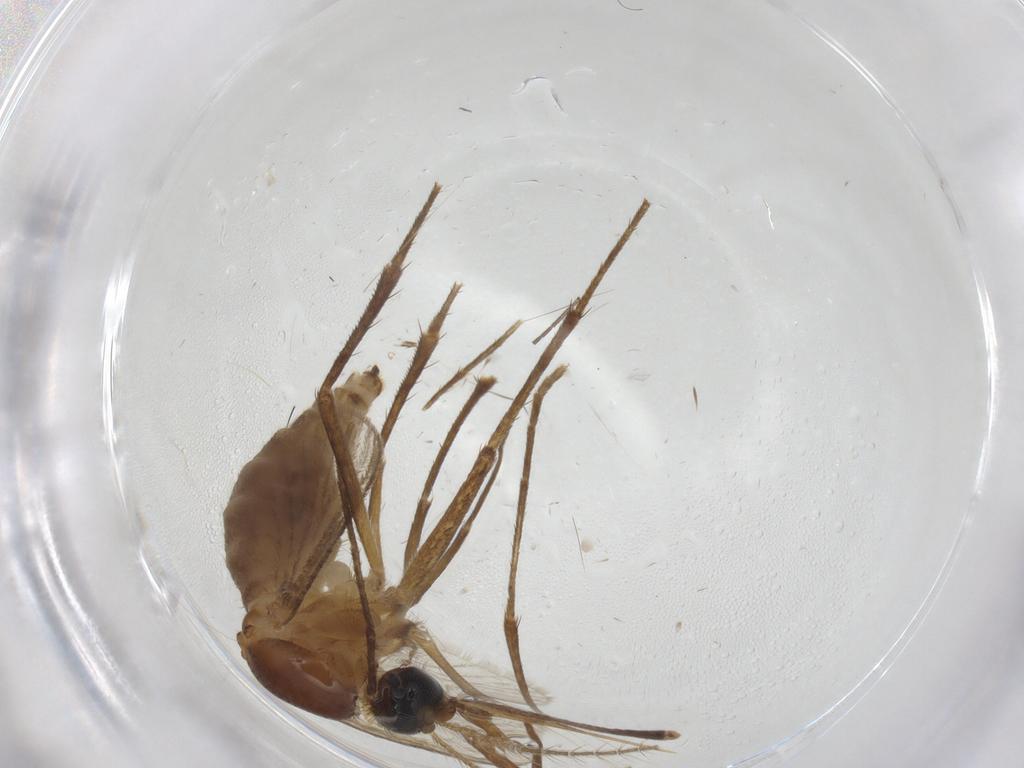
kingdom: Animalia
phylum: Arthropoda
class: Insecta
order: Diptera
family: Culicidae
